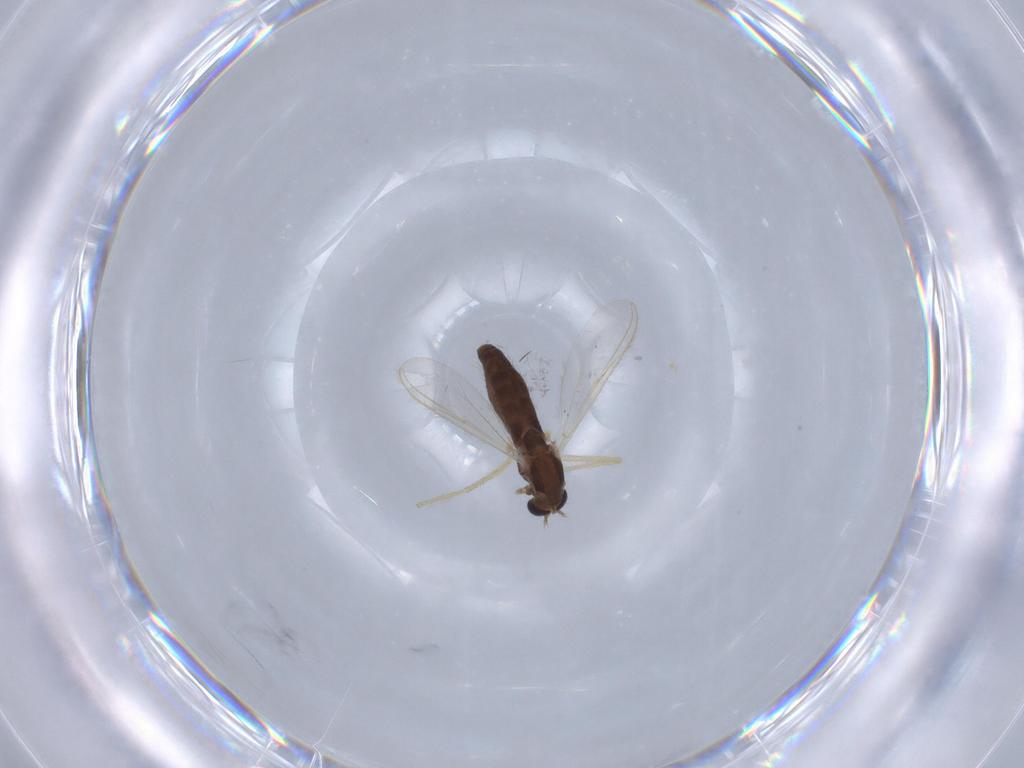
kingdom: Animalia
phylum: Arthropoda
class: Insecta
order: Diptera
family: Chironomidae
